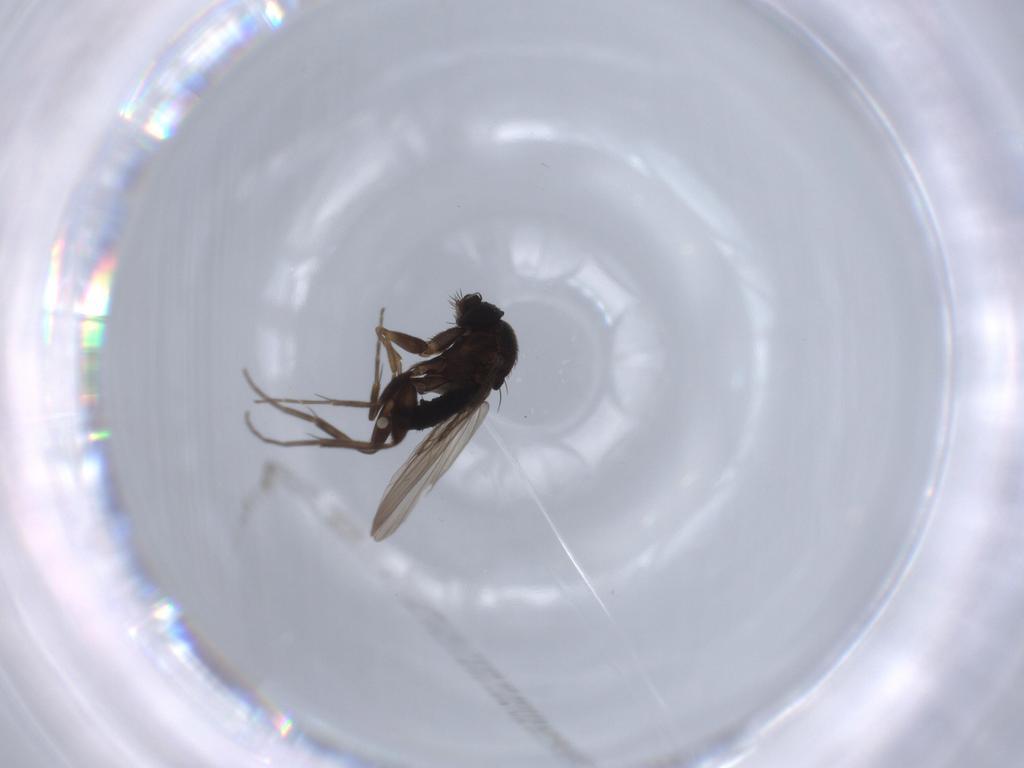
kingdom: Animalia
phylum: Arthropoda
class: Insecta
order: Diptera
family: Phoridae
